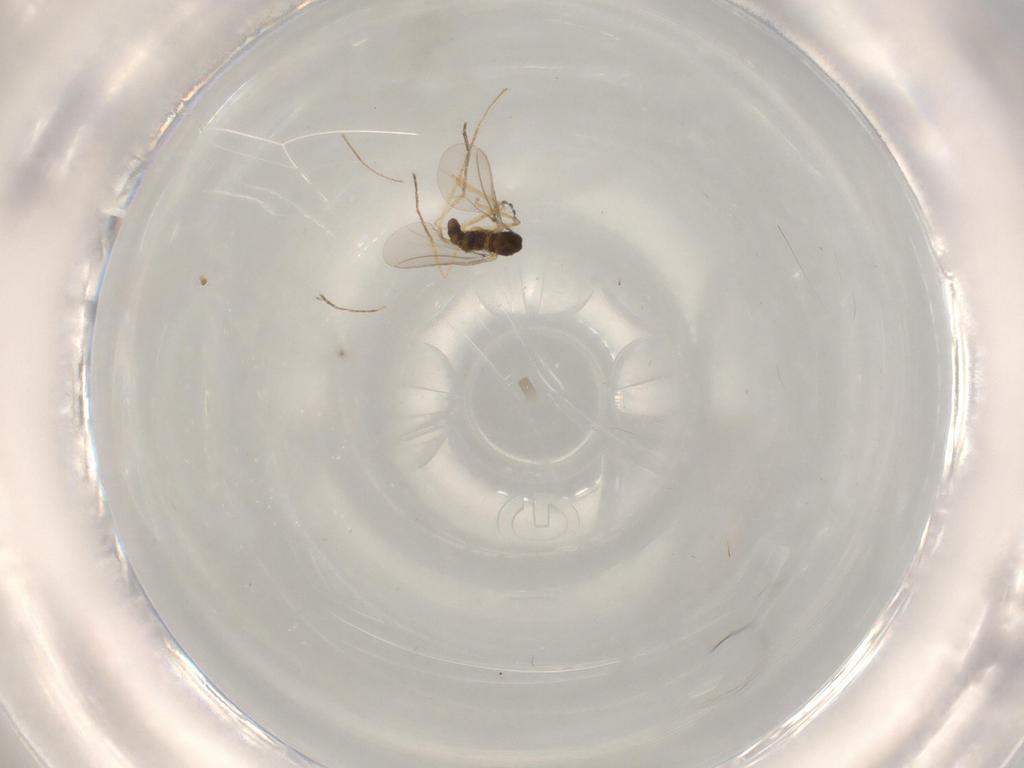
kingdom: Animalia
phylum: Arthropoda
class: Insecta
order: Diptera
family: Cecidomyiidae
